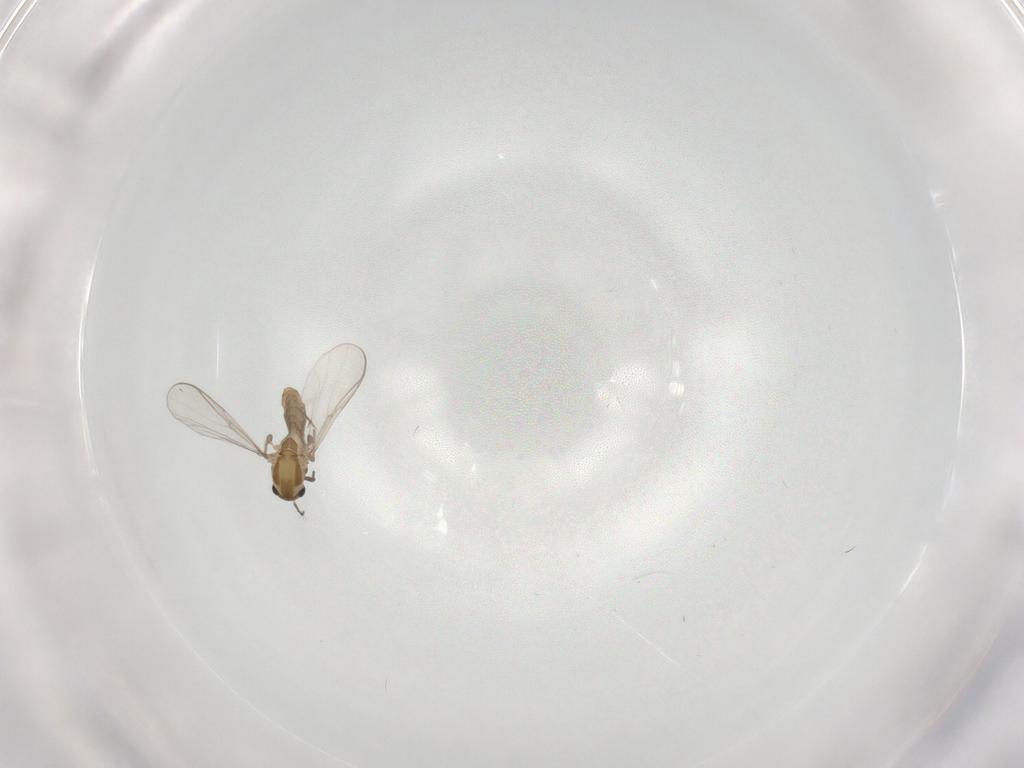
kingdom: Animalia
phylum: Arthropoda
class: Insecta
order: Diptera
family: Chironomidae
